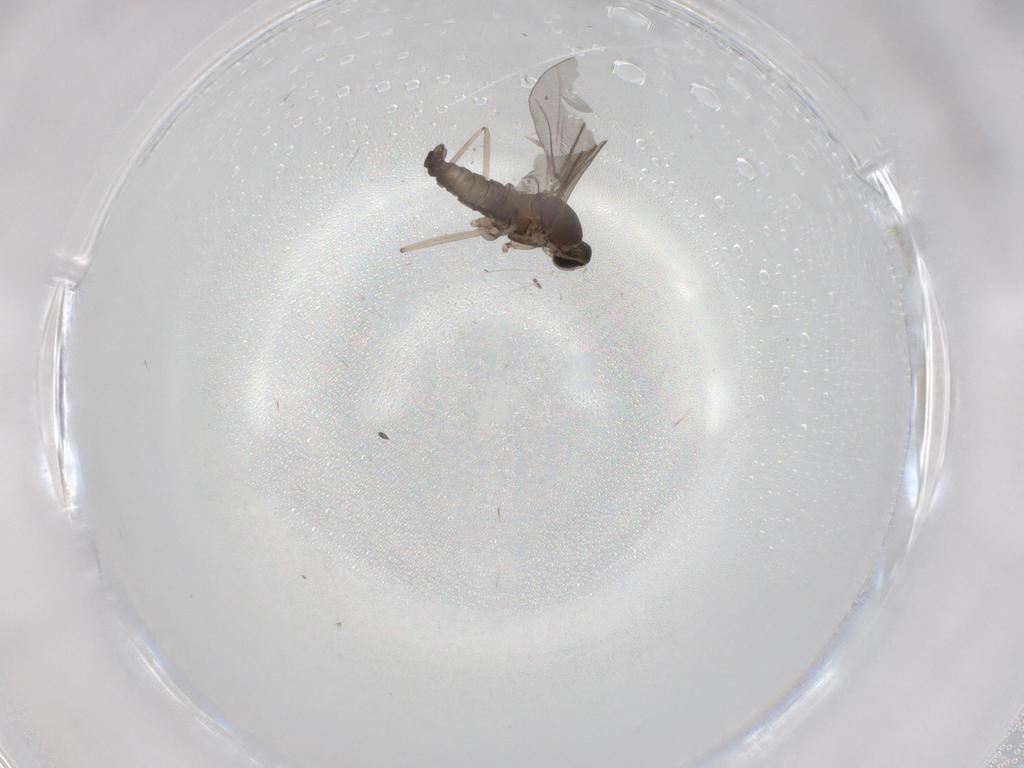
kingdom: Animalia
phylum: Arthropoda
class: Insecta
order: Diptera
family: Cecidomyiidae
